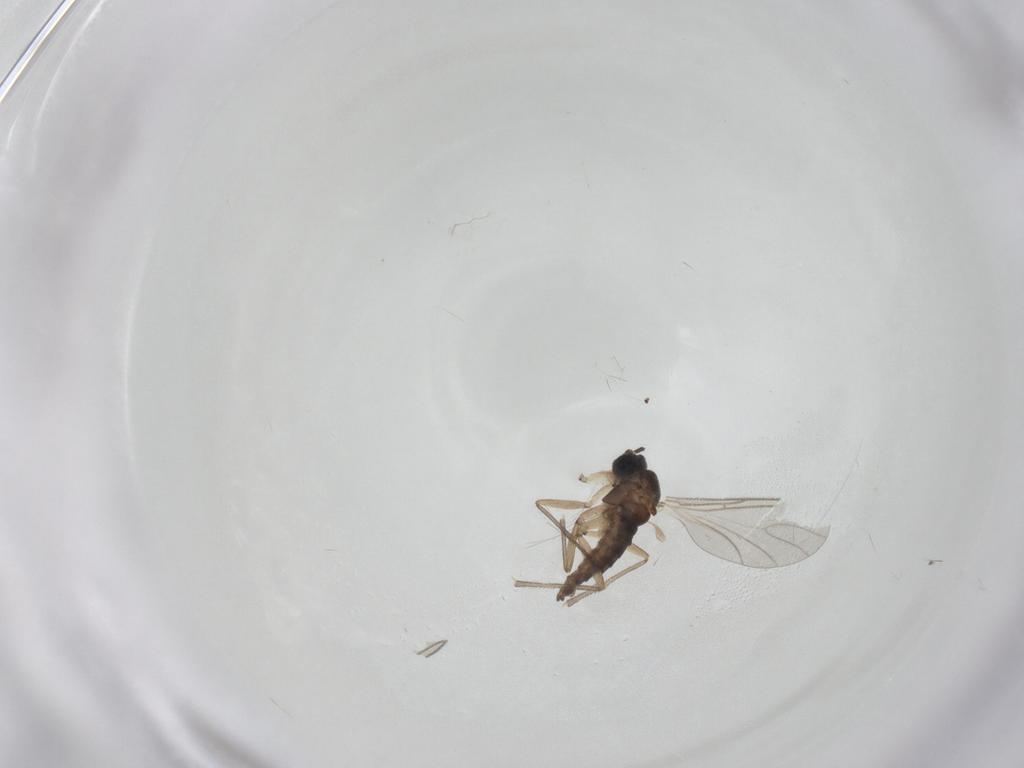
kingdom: Animalia
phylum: Arthropoda
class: Insecta
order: Diptera
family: Sciaridae
